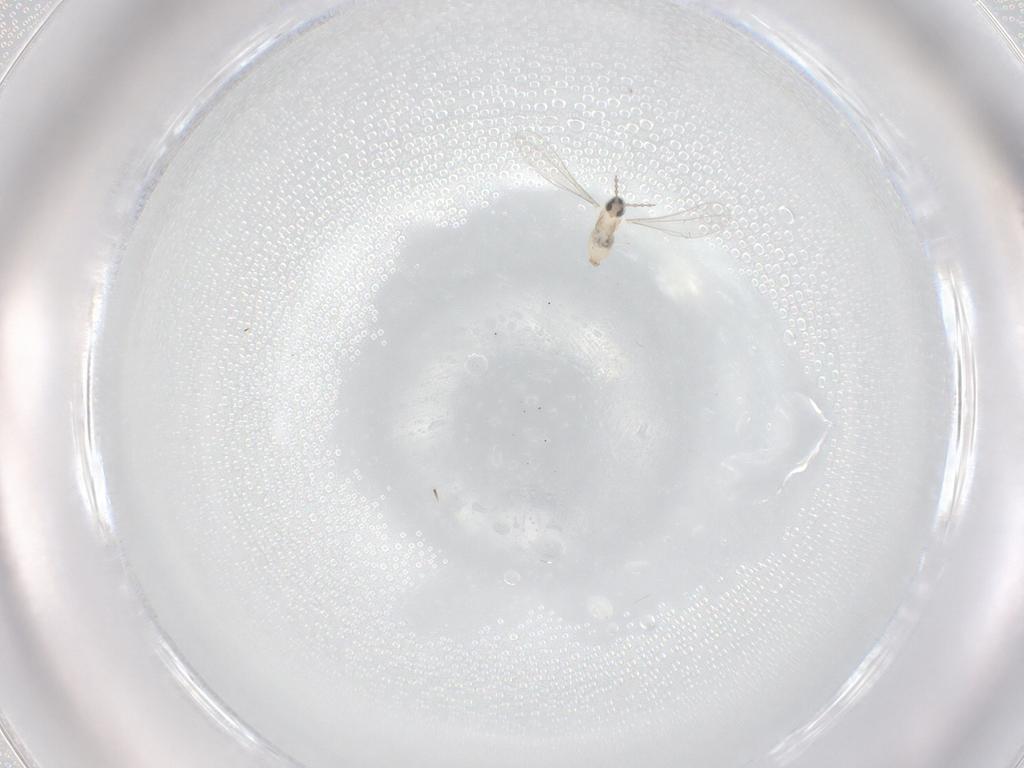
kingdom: Animalia
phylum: Arthropoda
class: Insecta
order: Diptera
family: Cecidomyiidae
